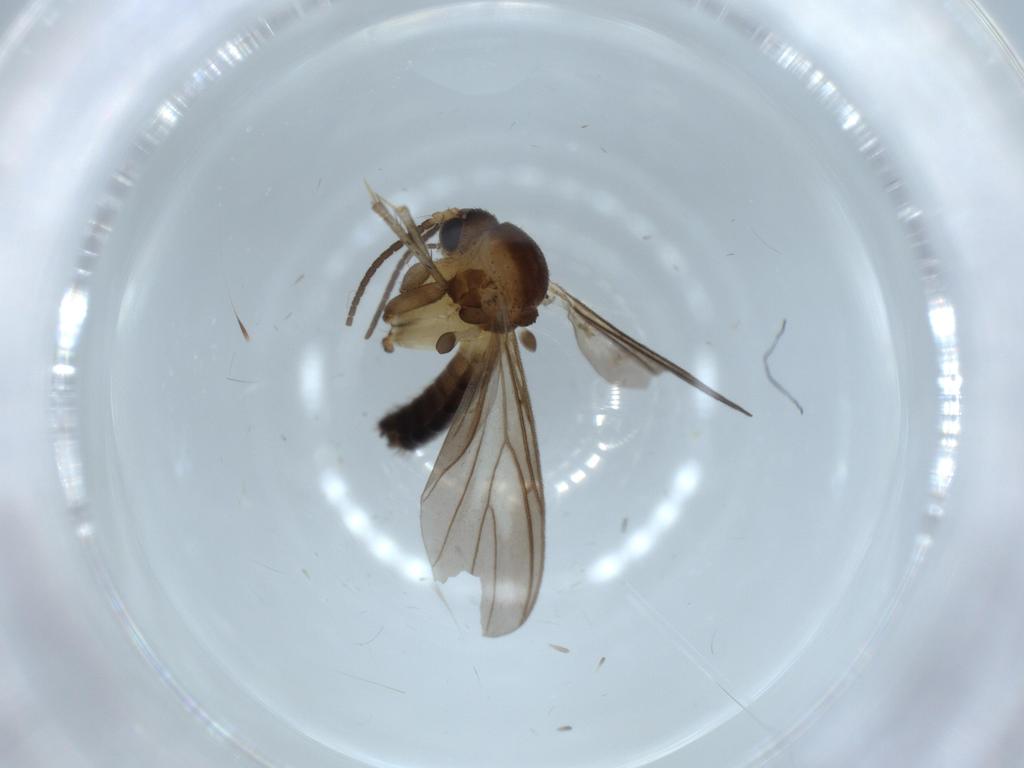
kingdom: Animalia
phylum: Arthropoda
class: Insecta
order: Diptera
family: Mycetophilidae
